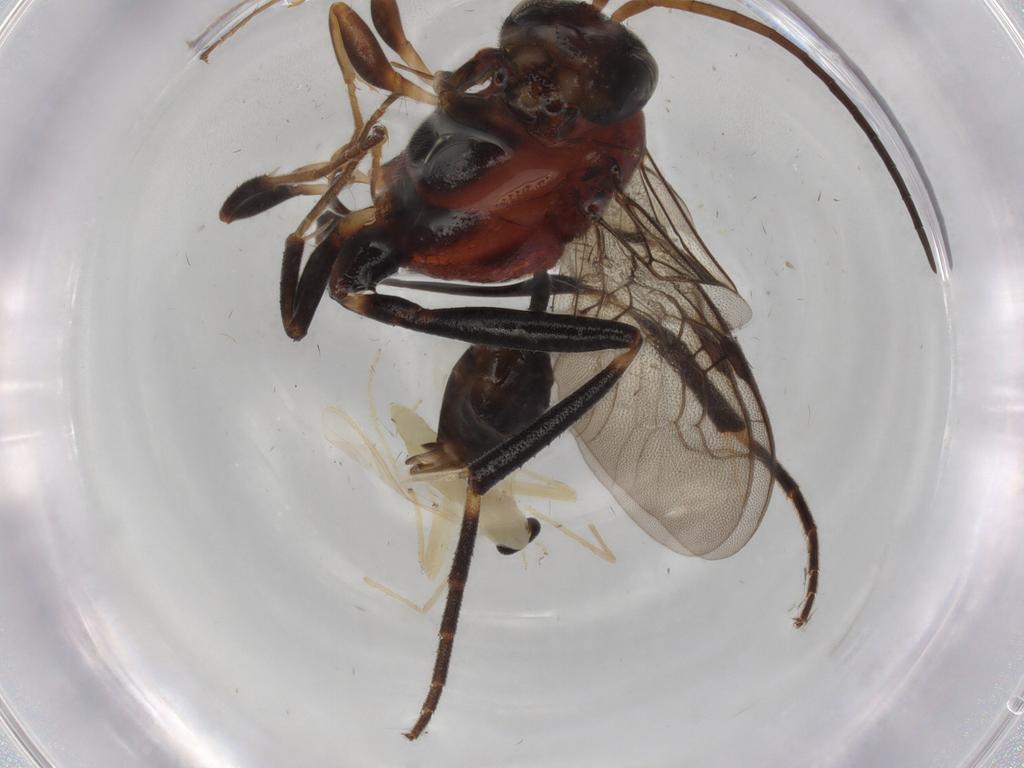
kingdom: Animalia
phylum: Arthropoda
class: Insecta
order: Hymenoptera
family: Evaniidae
